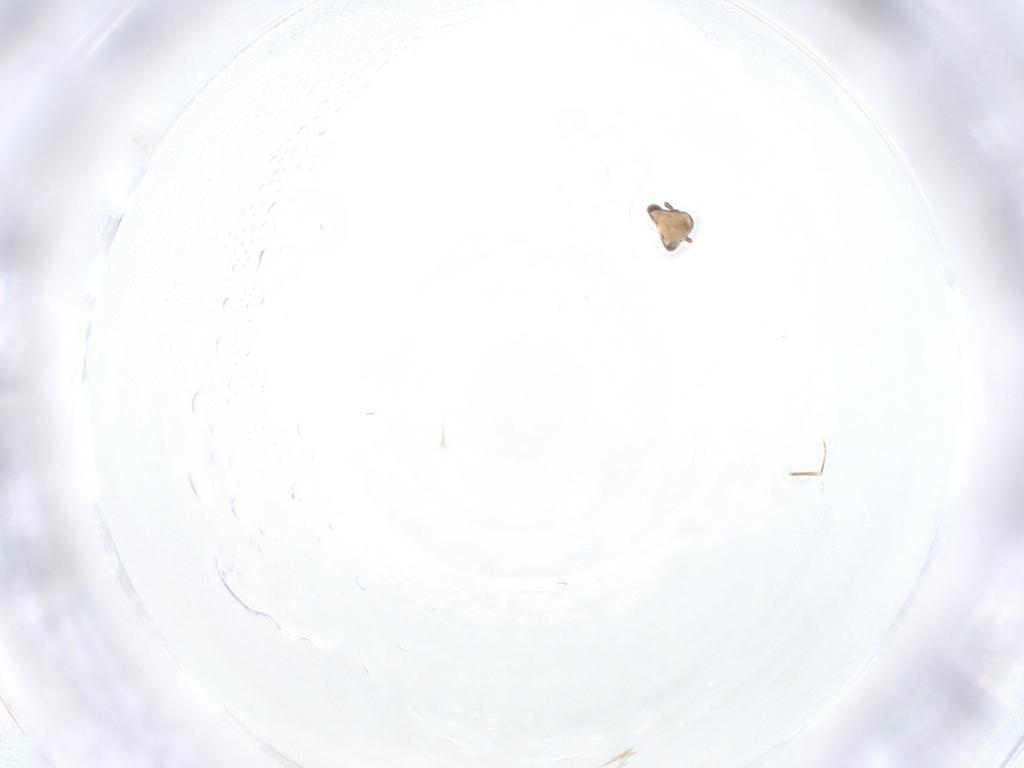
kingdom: Animalia
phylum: Arthropoda
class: Insecta
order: Psocodea
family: Lepidopsocidae
